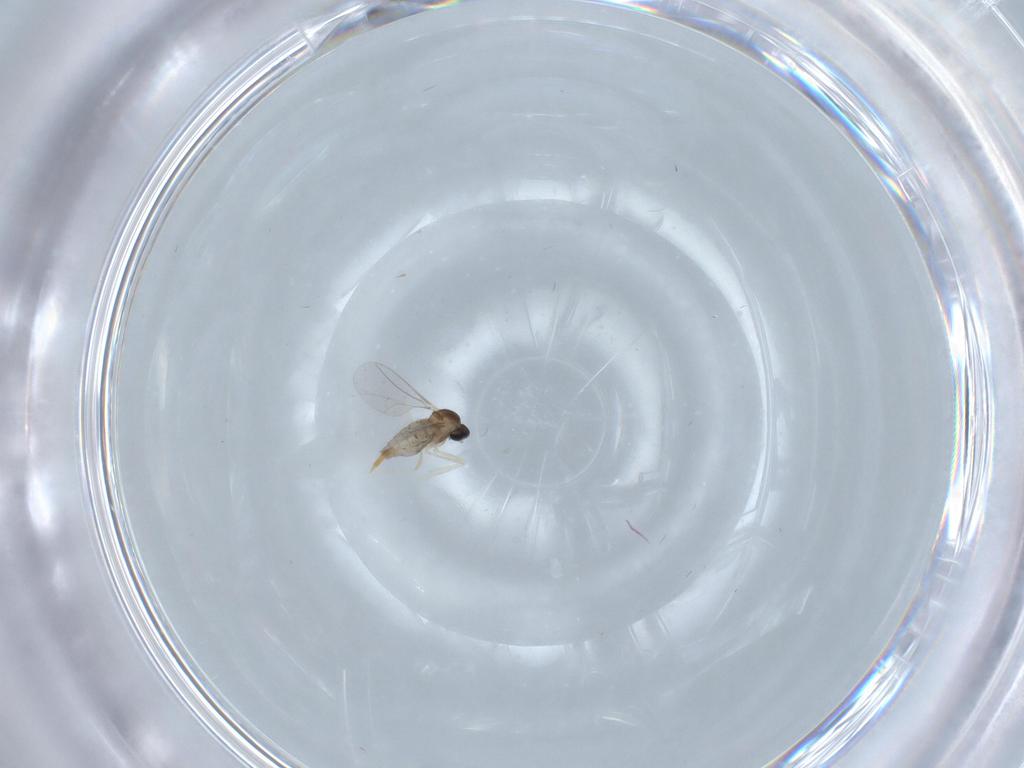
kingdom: Animalia
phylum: Arthropoda
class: Insecta
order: Diptera
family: Cecidomyiidae
